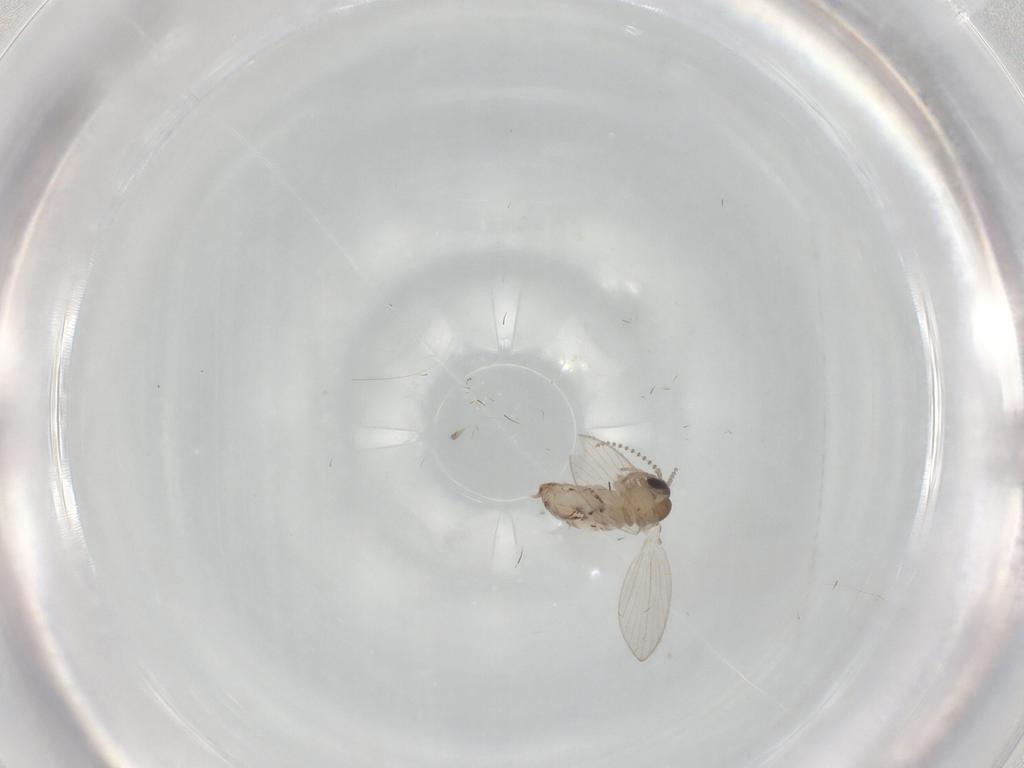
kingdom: Animalia
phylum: Arthropoda
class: Insecta
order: Diptera
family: Psychodidae
